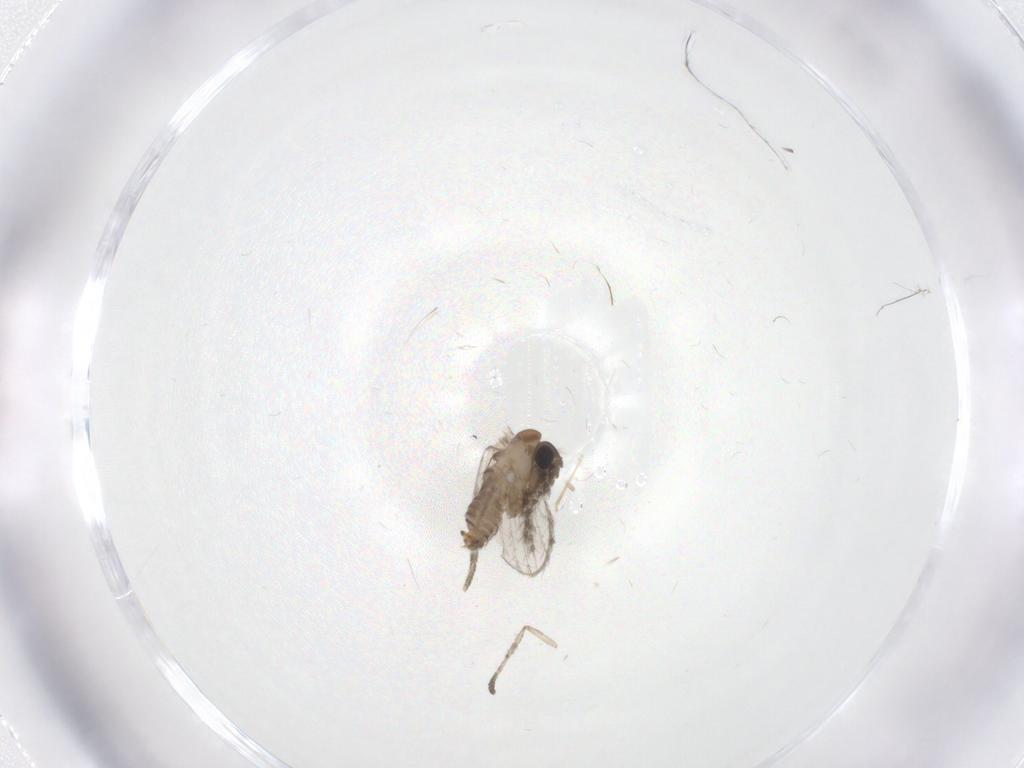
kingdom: Animalia
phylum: Arthropoda
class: Insecta
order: Diptera
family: Cecidomyiidae
